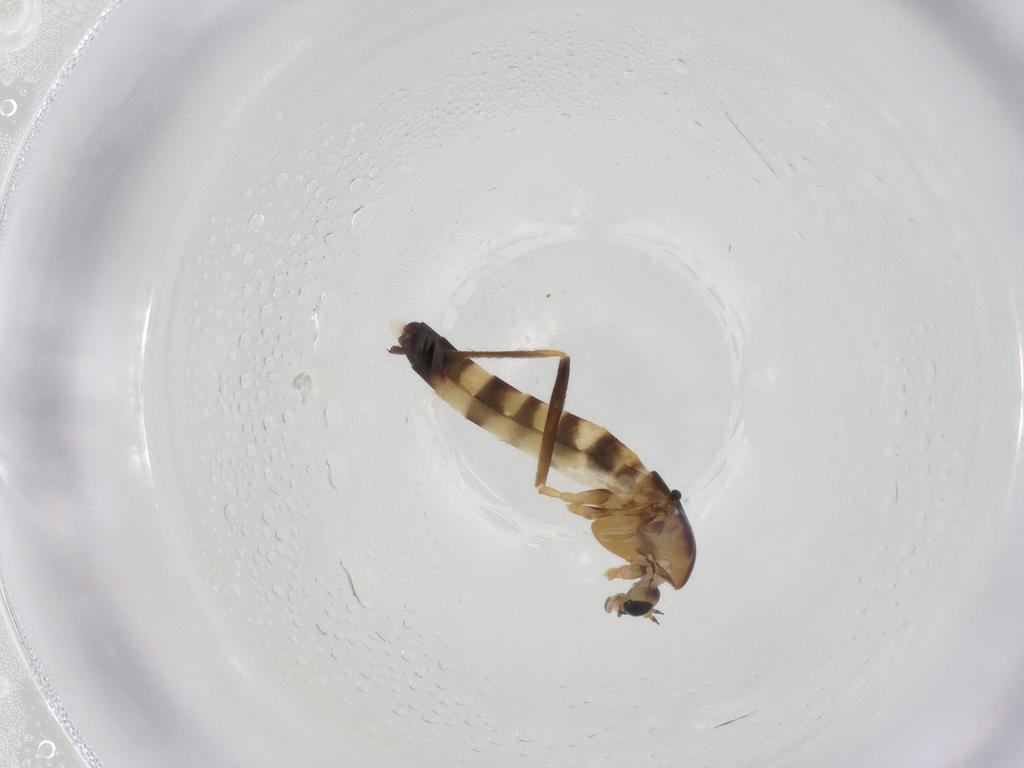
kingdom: Animalia
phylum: Arthropoda
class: Insecta
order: Diptera
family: Chironomidae
